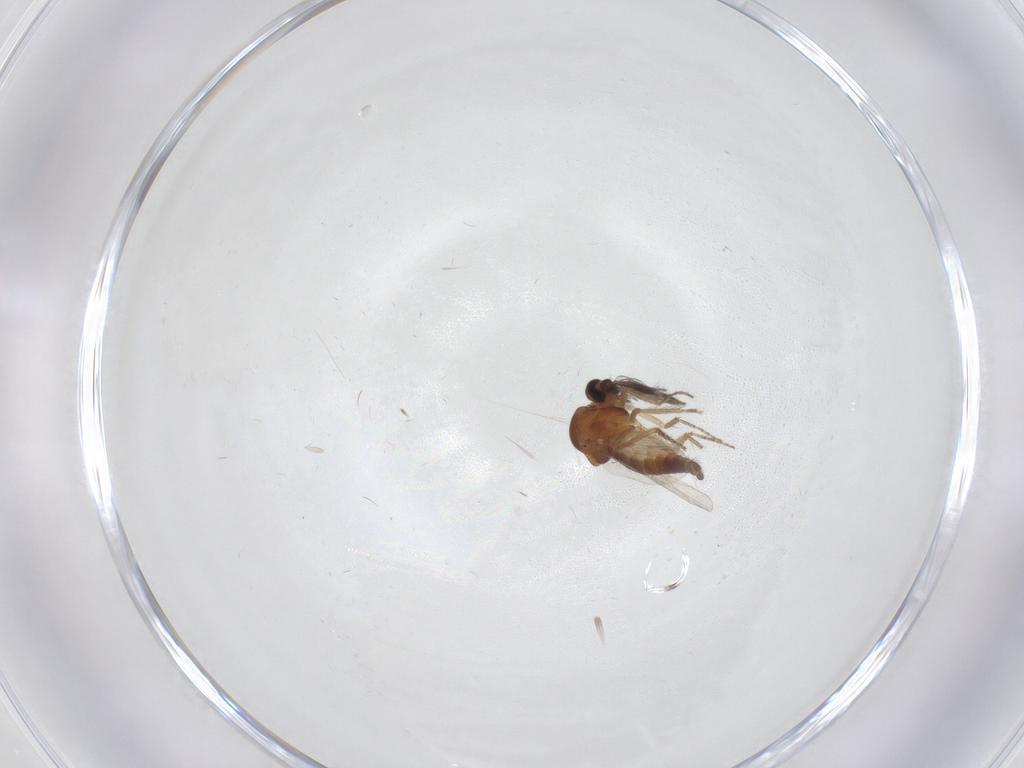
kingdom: Animalia
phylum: Arthropoda
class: Insecta
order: Diptera
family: Ceratopogonidae
